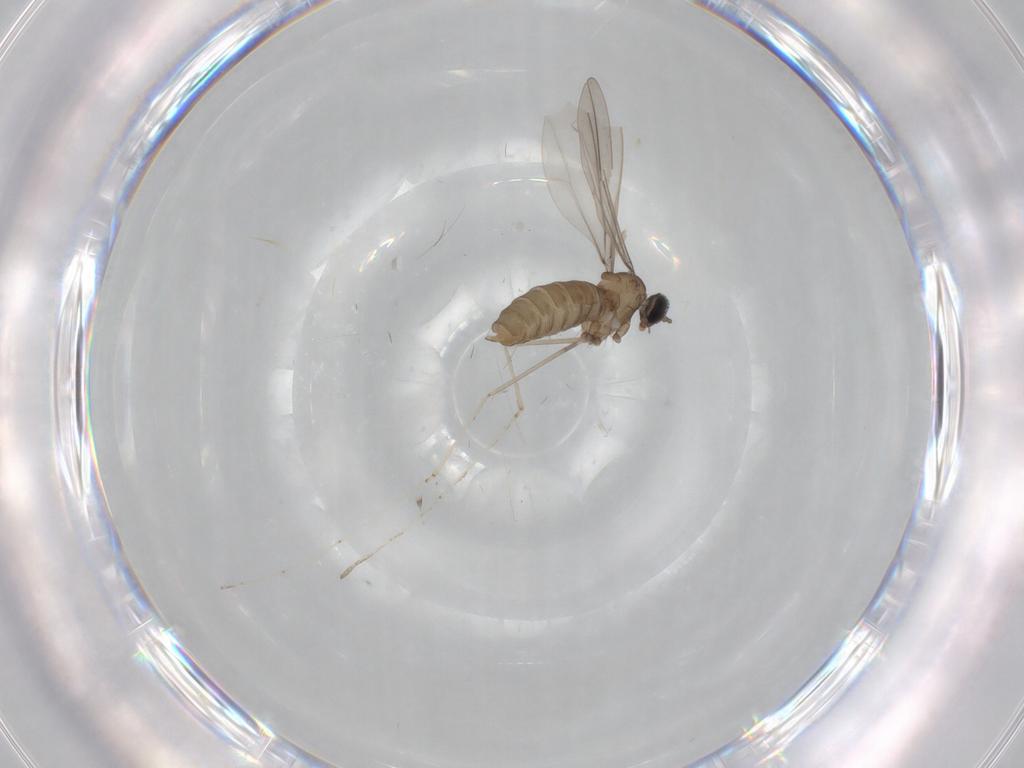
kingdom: Animalia
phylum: Arthropoda
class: Insecta
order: Diptera
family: Cecidomyiidae
